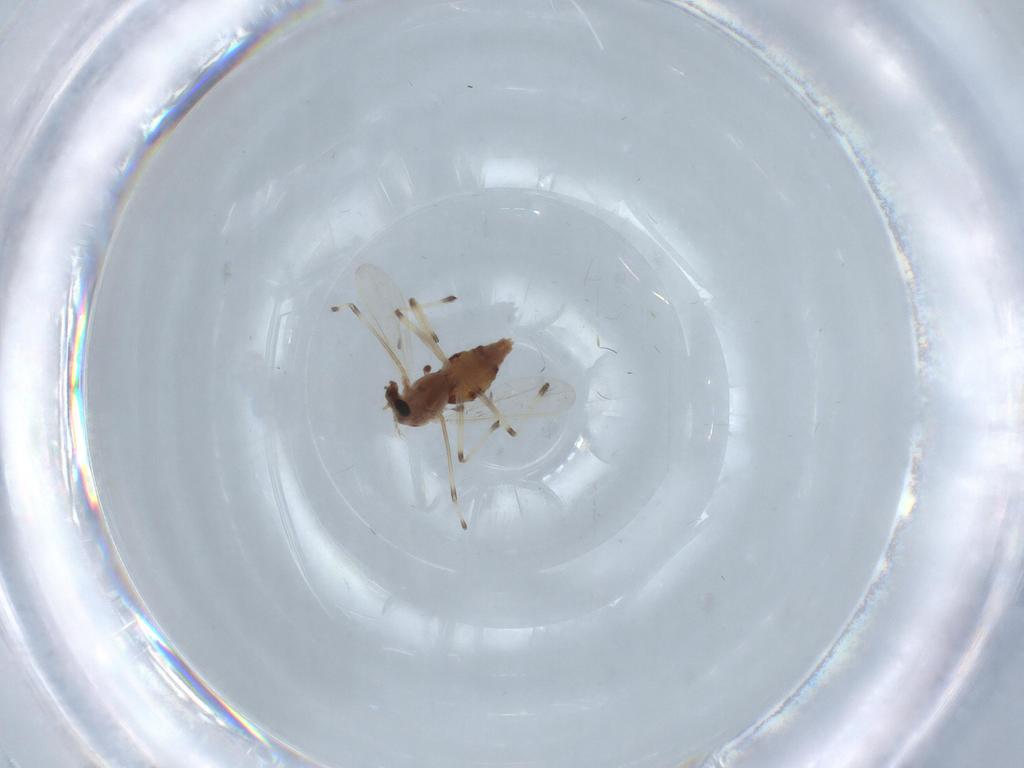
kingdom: Animalia
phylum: Arthropoda
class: Insecta
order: Diptera
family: Chironomidae
